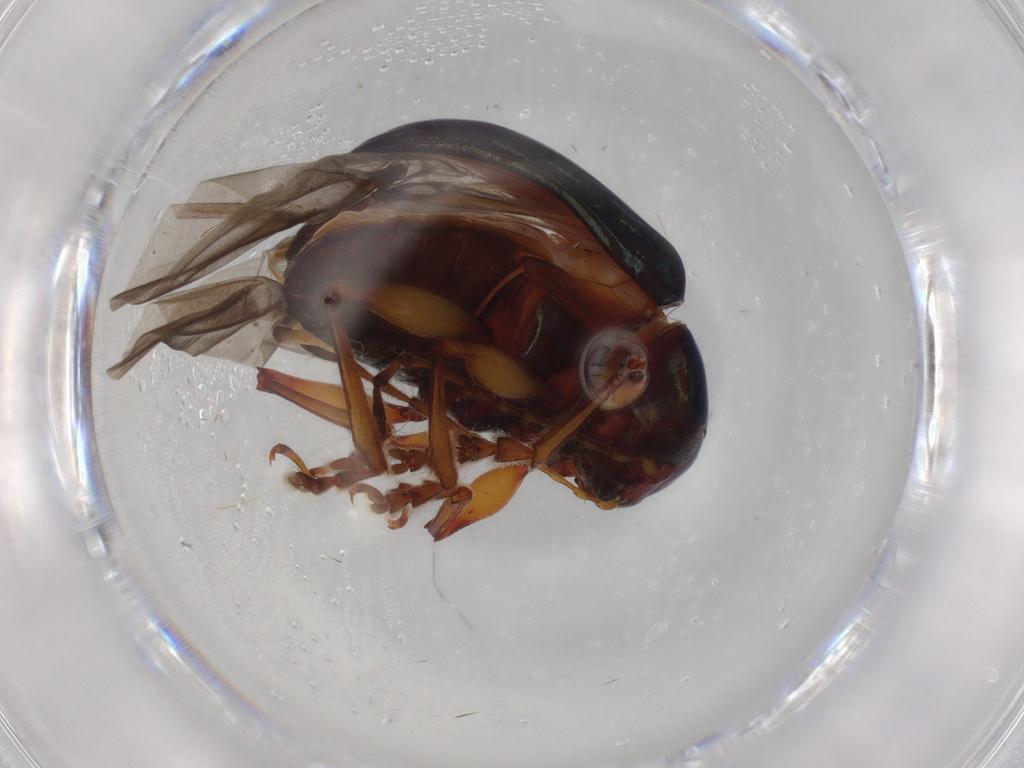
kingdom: Animalia
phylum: Arthropoda
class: Insecta
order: Coleoptera
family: Chrysomelidae
